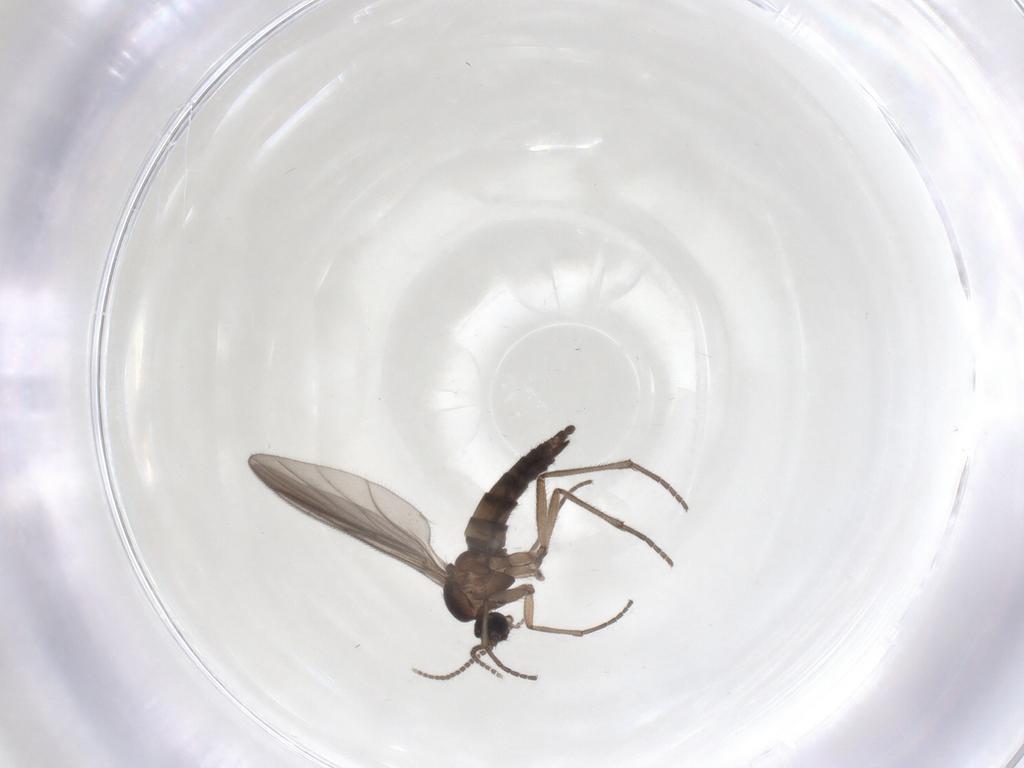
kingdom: Animalia
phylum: Arthropoda
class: Insecta
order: Diptera
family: Sciaridae
